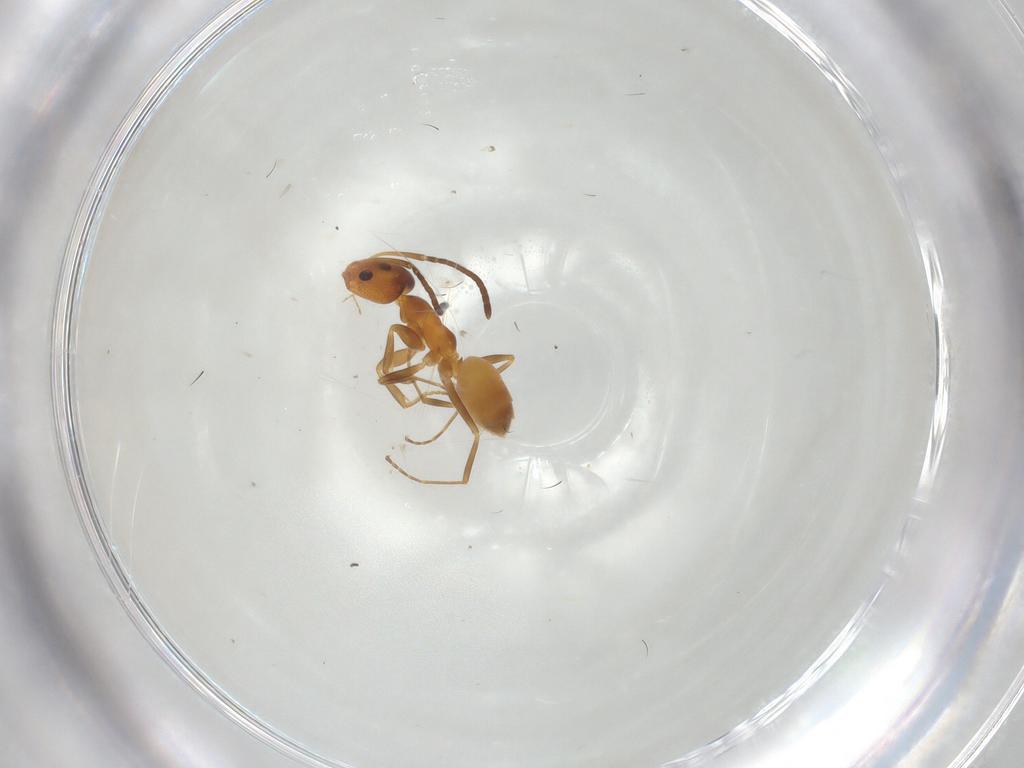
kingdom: Animalia
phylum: Arthropoda
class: Insecta
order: Hymenoptera
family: Formicidae
